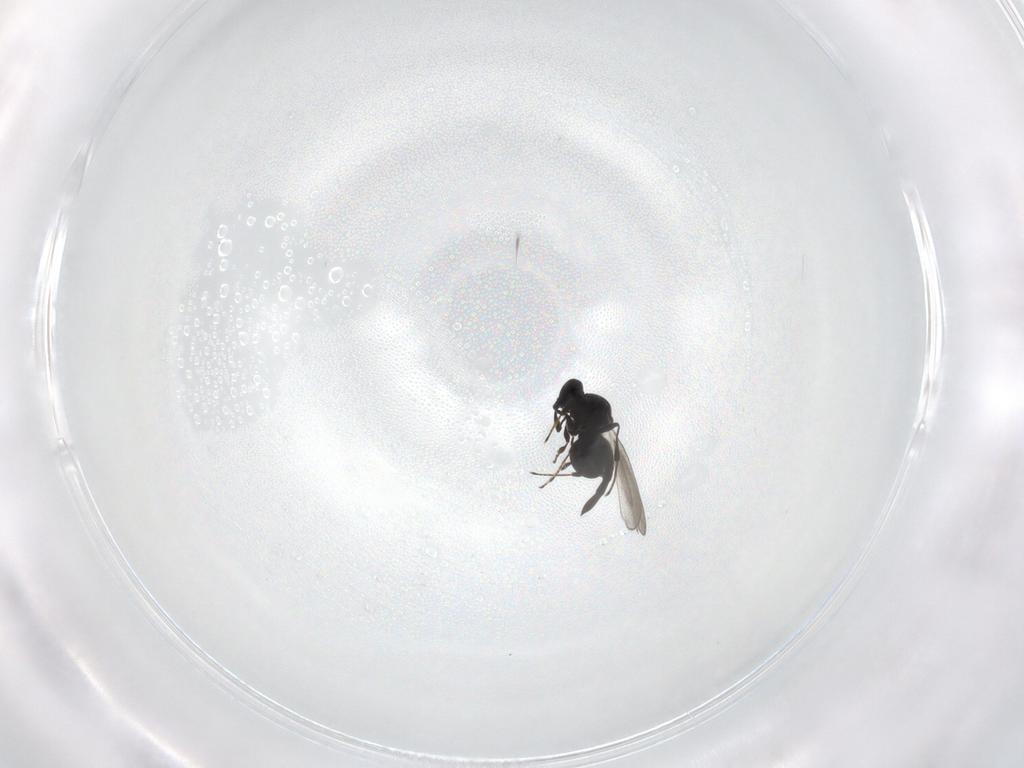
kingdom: Animalia
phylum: Arthropoda
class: Insecta
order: Hymenoptera
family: Platygastridae
